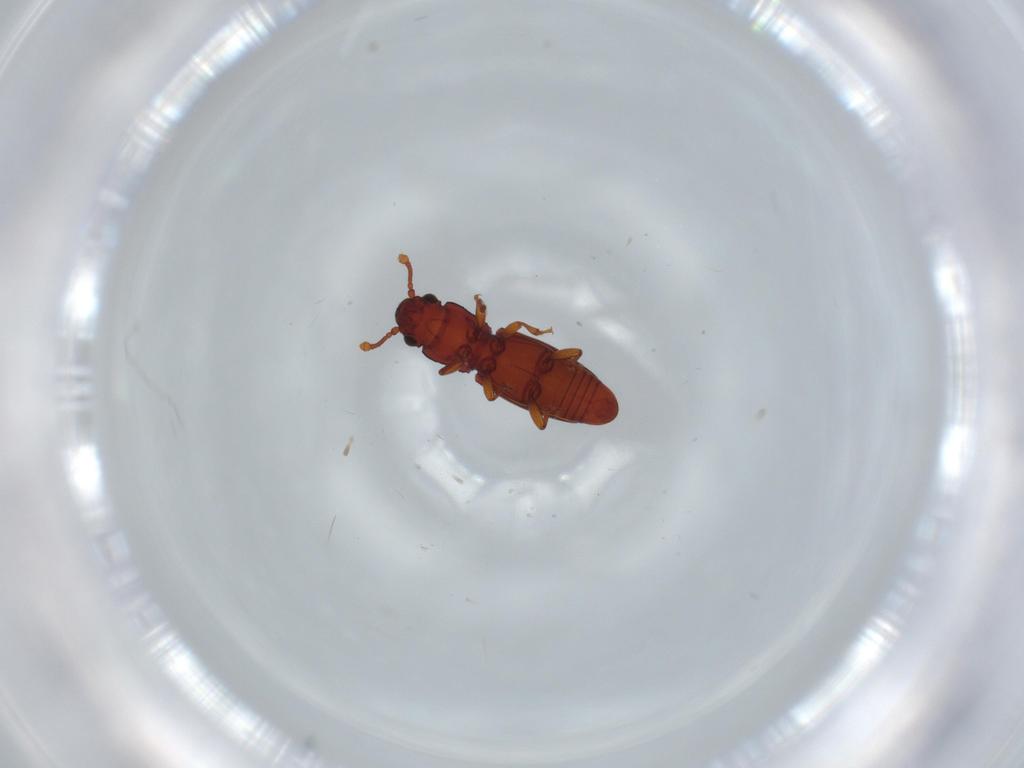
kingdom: Animalia
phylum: Arthropoda
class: Insecta
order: Coleoptera
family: Monotomidae
